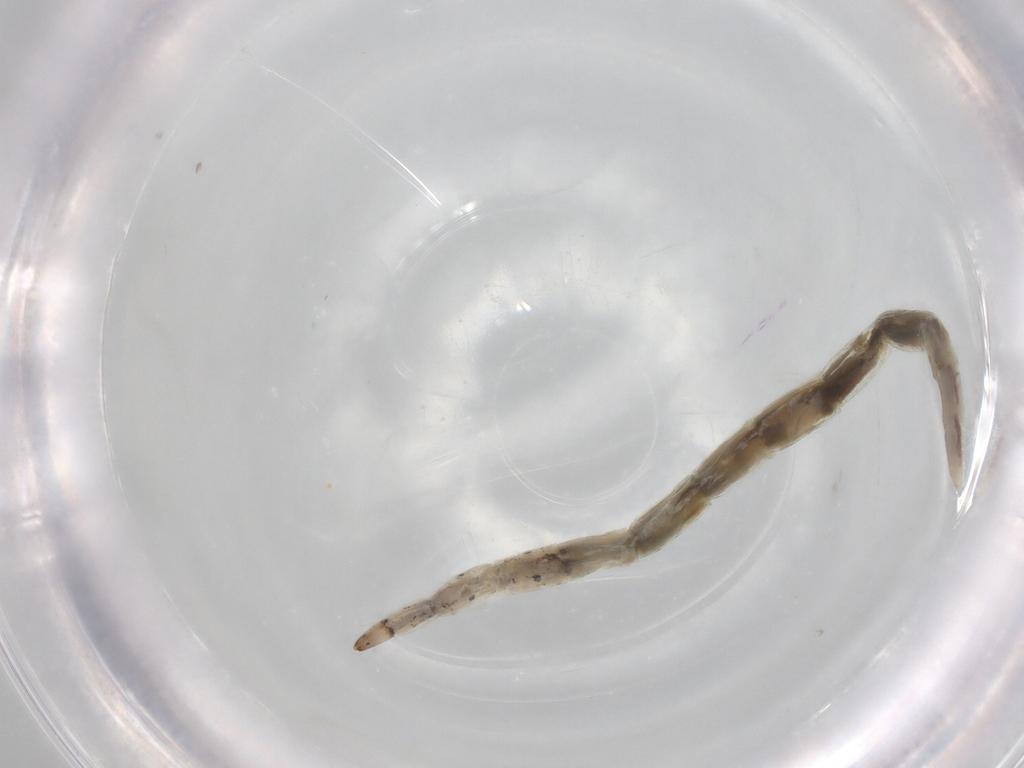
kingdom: Animalia
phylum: Arthropoda
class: Insecta
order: Diptera
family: Ceratopogonidae
